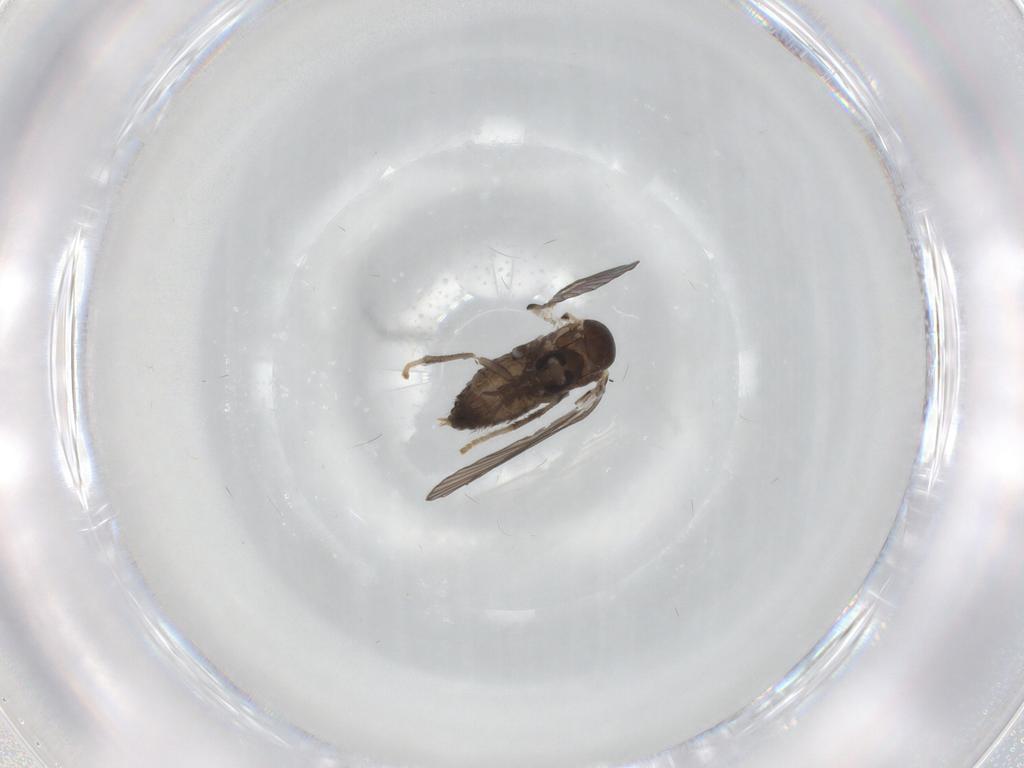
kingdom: Animalia
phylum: Arthropoda
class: Insecta
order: Diptera
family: Psychodidae
